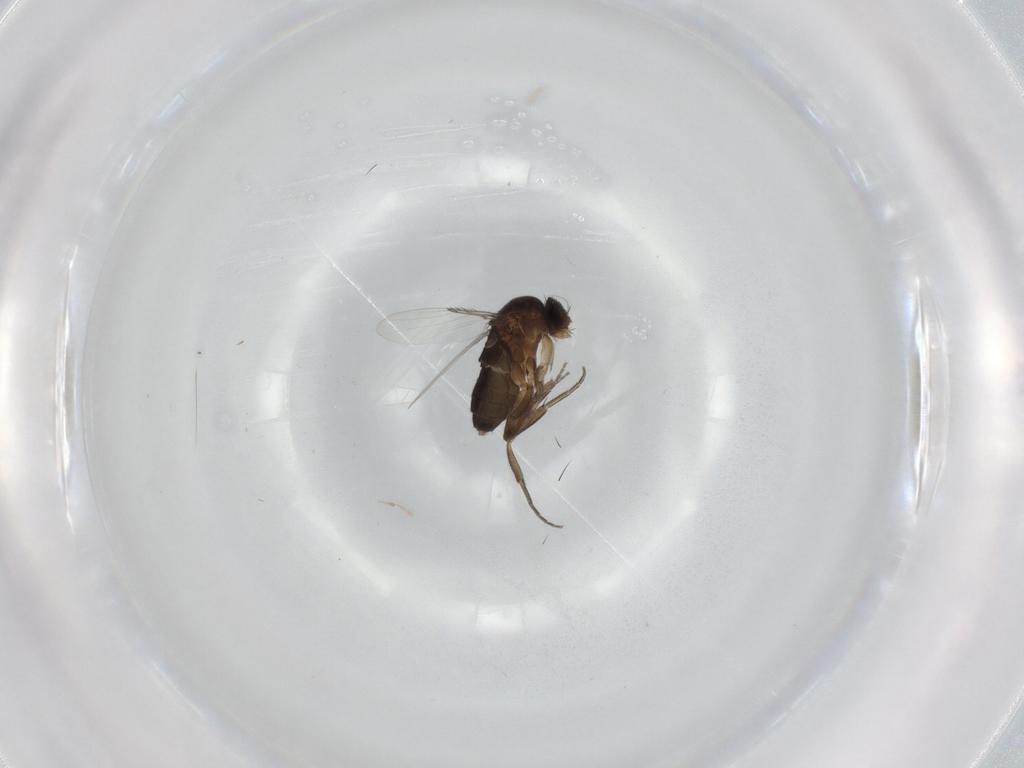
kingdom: Animalia
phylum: Arthropoda
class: Insecta
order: Diptera
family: Phoridae
